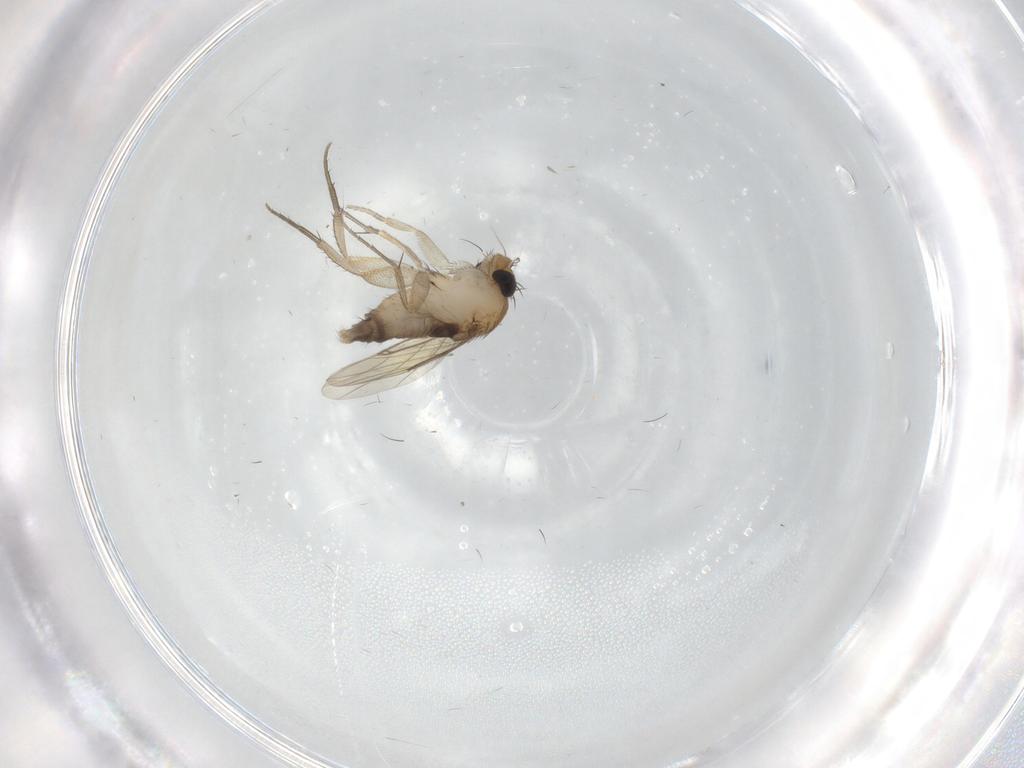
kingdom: Animalia
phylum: Arthropoda
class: Insecta
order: Diptera
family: Phoridae
